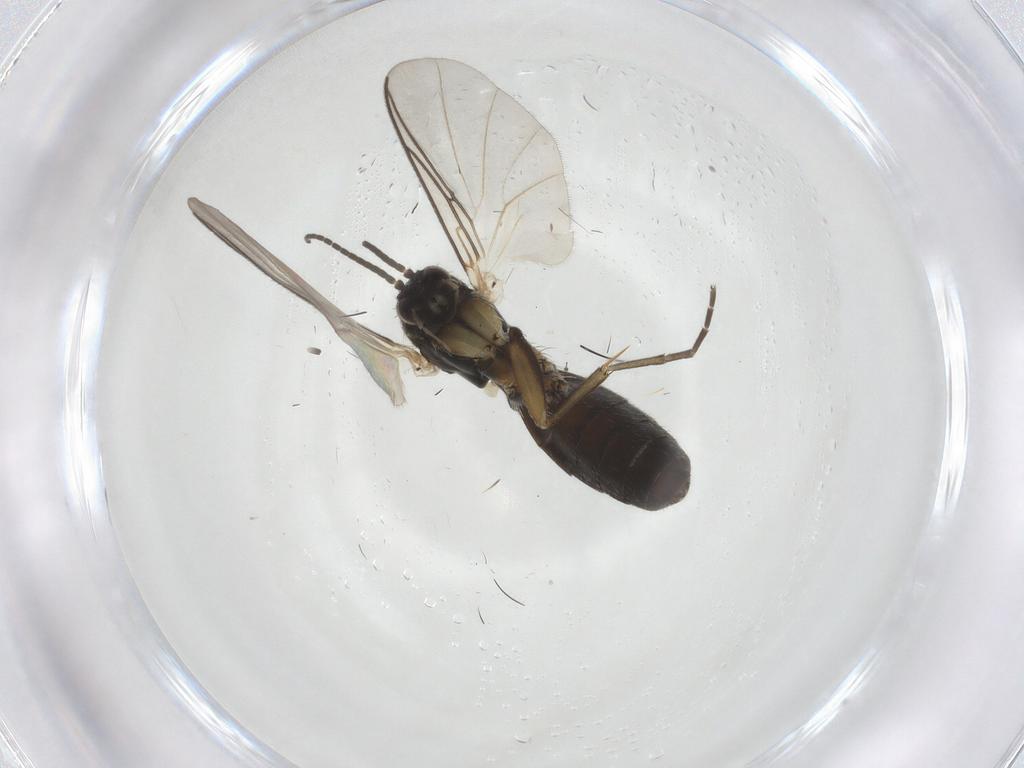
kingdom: Animalia
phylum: Arthropoda
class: Insecta
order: Diptera
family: Mycetophilidae
